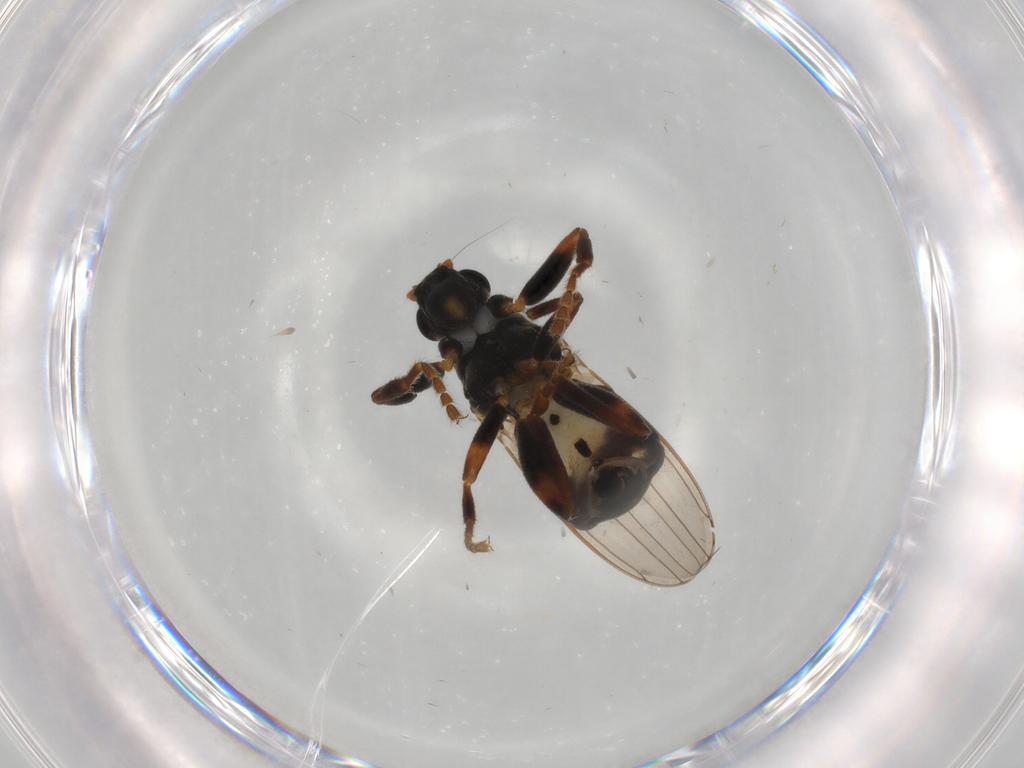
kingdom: Animalia
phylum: Arthropoda
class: Insecta
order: Diptera
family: Sphaeroceridae
